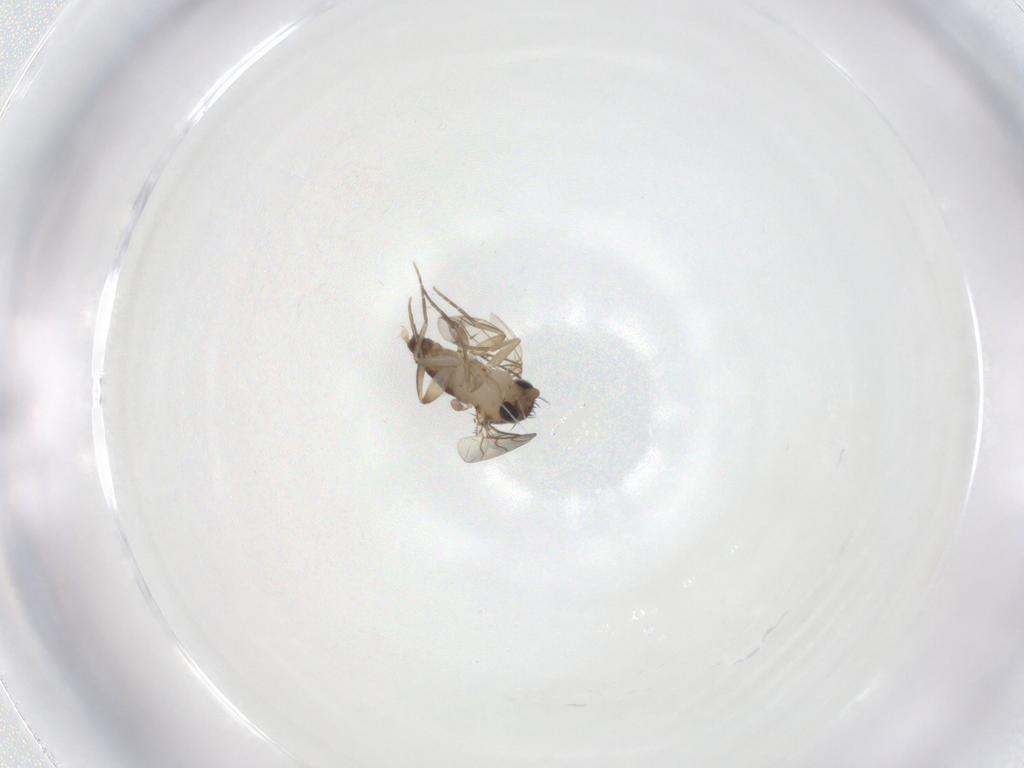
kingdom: Animalia
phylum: Arthropoda
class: Insecta
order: Diptera
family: Phoridae
